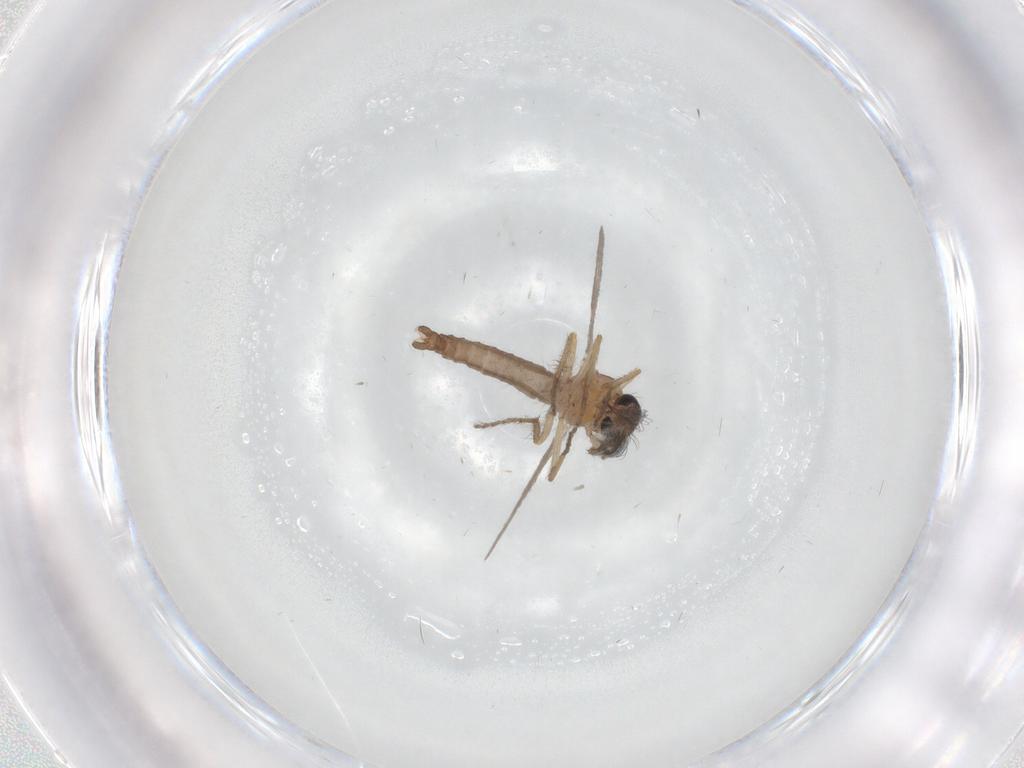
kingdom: Animalia
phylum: Arthropoda
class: Insecta
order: Diptera
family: Ceratopogonidae
